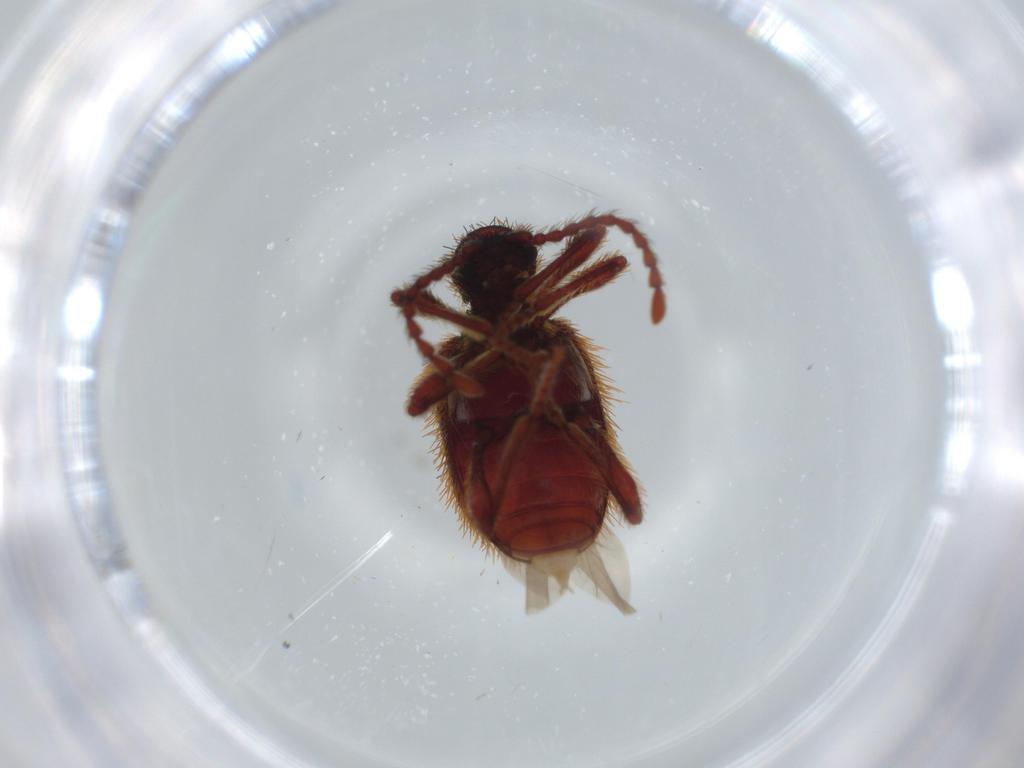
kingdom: Animalia
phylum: Arthropoda
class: Insecta
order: Coleoptera
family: Ptinidae
